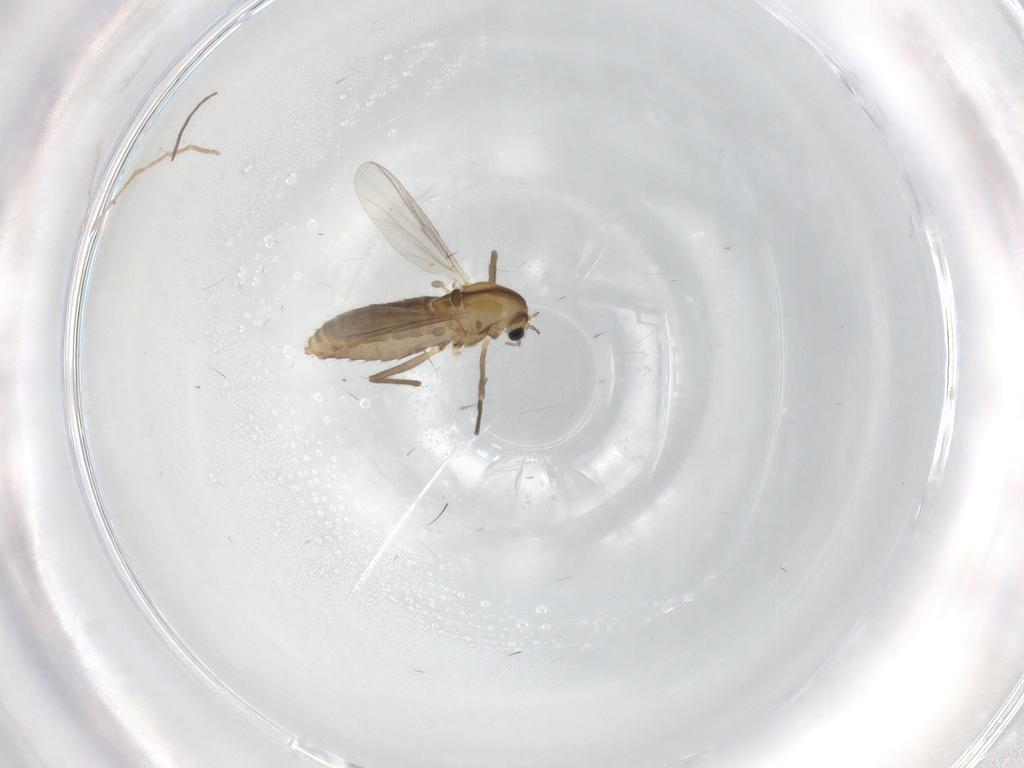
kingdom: Animalia
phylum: Arthropoda
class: Insecta
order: Diptera
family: Chironomidae
